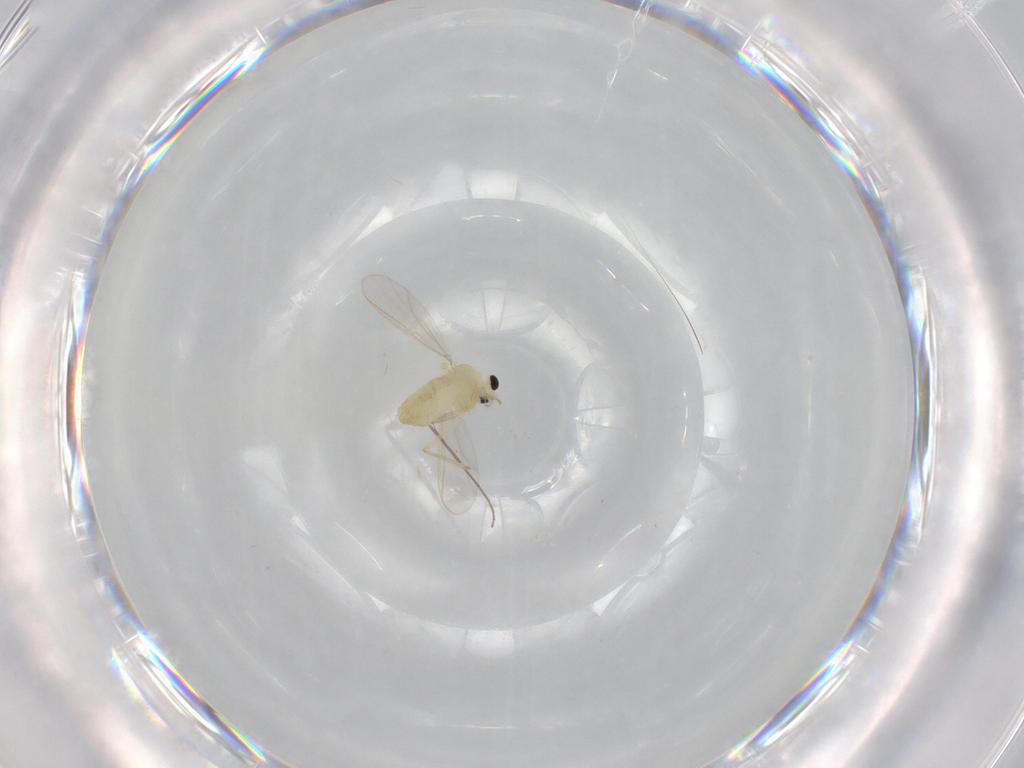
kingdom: Animalia
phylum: Arthropoda
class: Insecta
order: Diptera
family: Chironomidae
